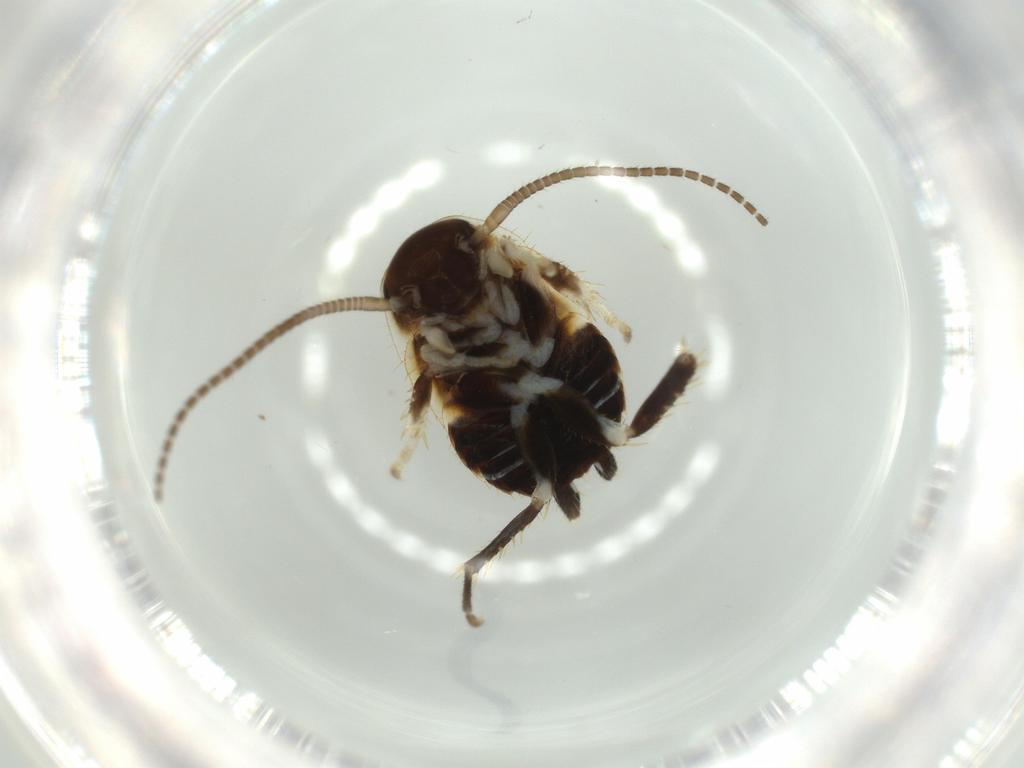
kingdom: Animalia
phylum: Arthropoda
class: Insecta
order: Blattodea
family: Ectobiidae
